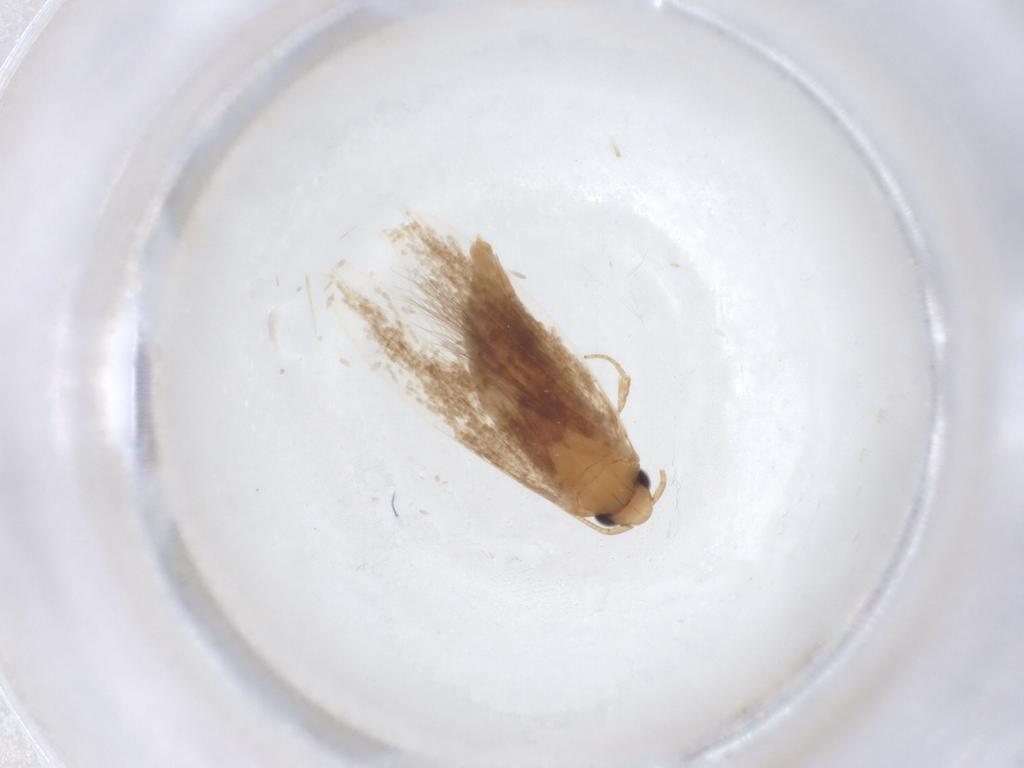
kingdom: Animalia
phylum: Arthropoda
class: Insecta
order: Lepidoptera
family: Tineidae
